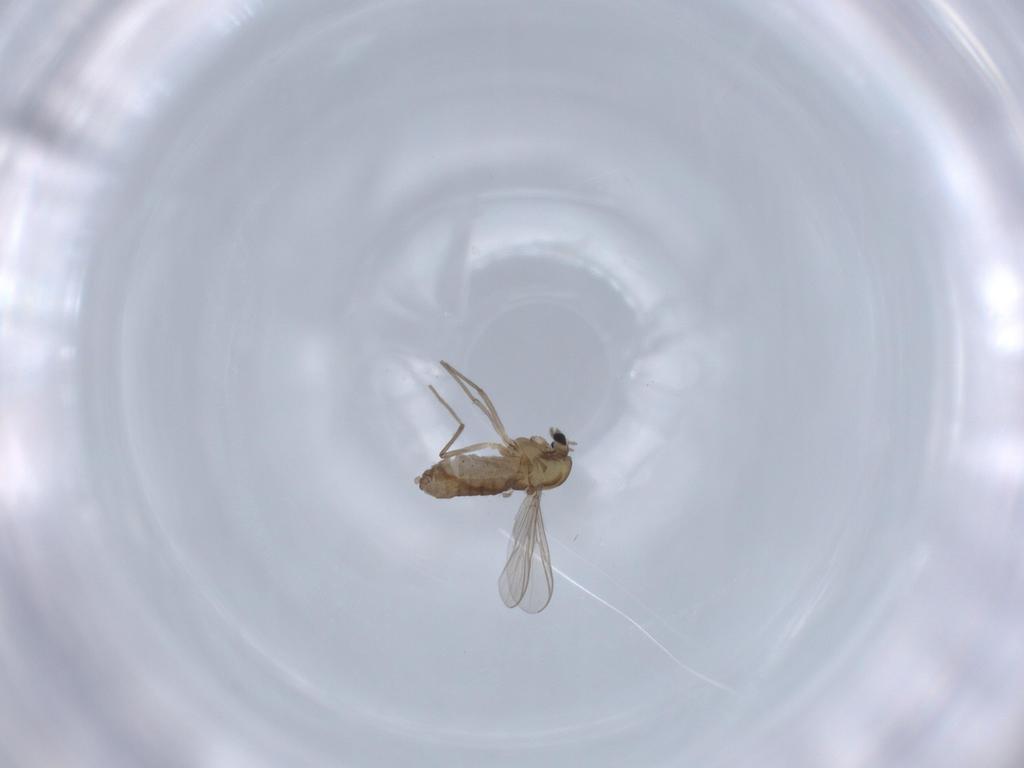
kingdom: Animalia
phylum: Arthropoda
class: Insecta
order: Diptera
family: Chironomidae
